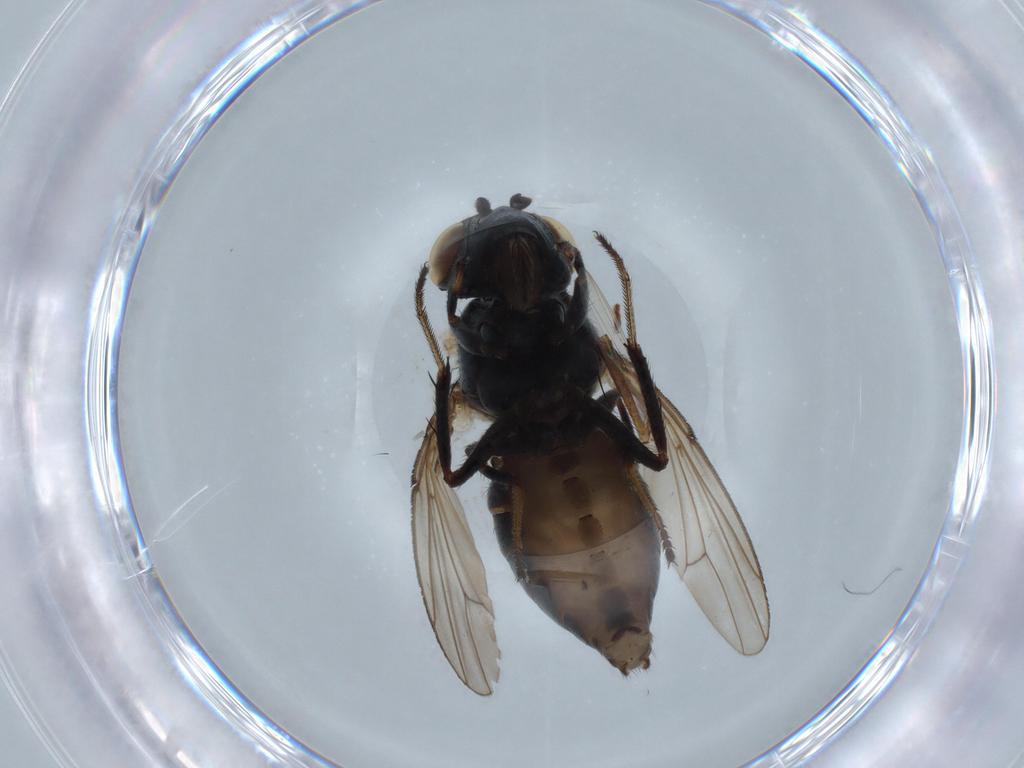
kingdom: Animalia
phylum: Arthropoda
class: Insecta
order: Diptera
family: Ephydridae
